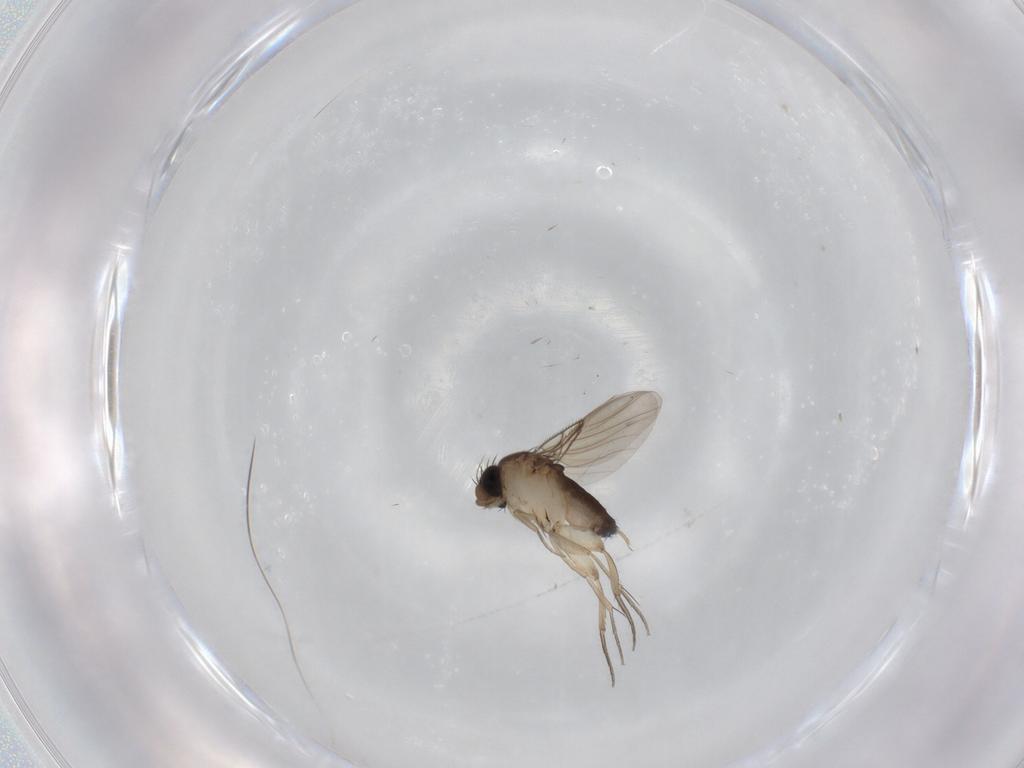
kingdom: Animalia
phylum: Arthropoda
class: Insecta
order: Diptera
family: Phoridae
